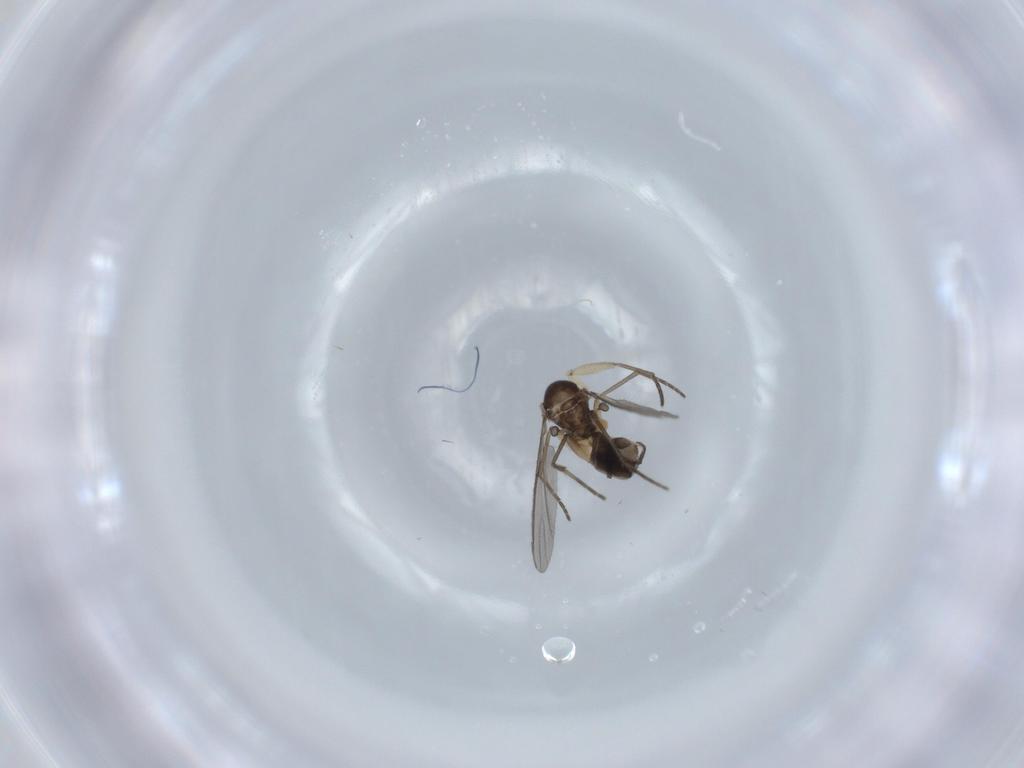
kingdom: Animalia
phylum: Arthropoda
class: Insecta
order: Diptera
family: Sciaridae
